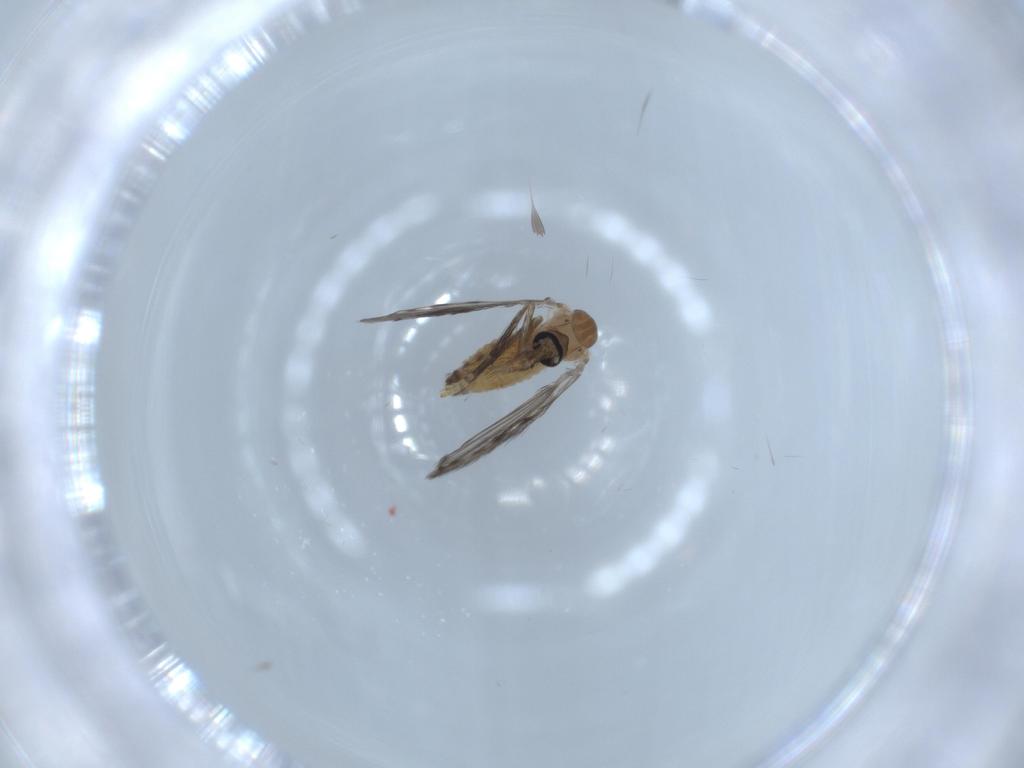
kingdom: Animalia
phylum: Arthropoda
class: Insecta
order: Diptera
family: Psychodidae
